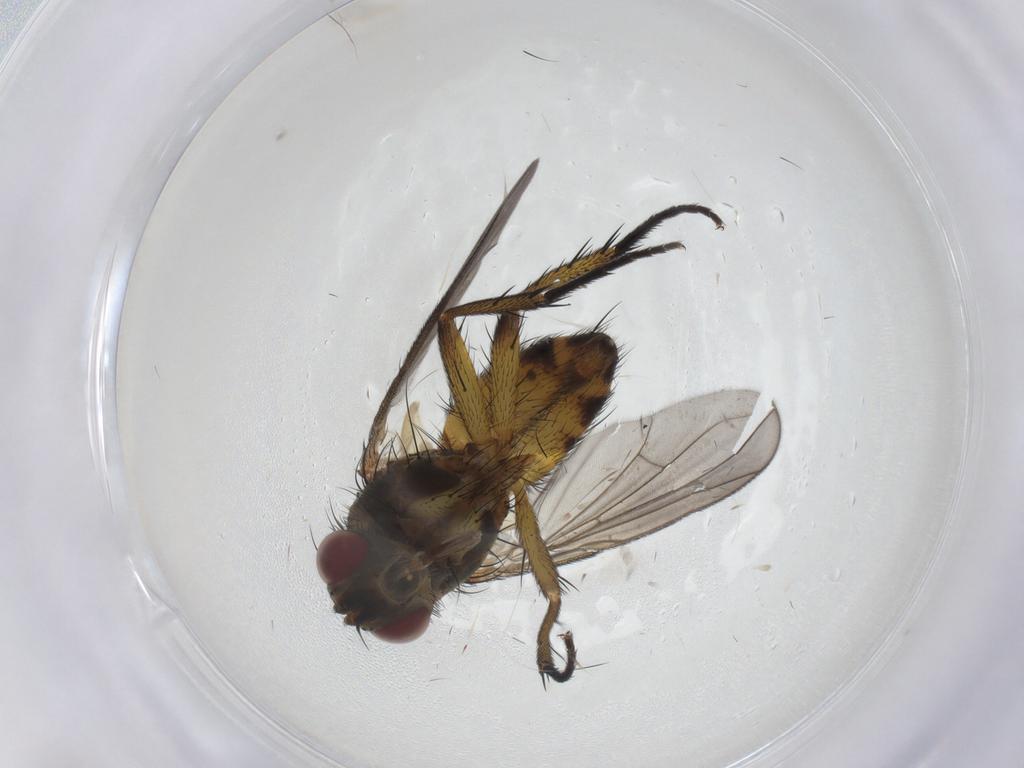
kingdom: Animalia
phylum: Arthropoda
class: Insecta
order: Diptera
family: Tachinidae
